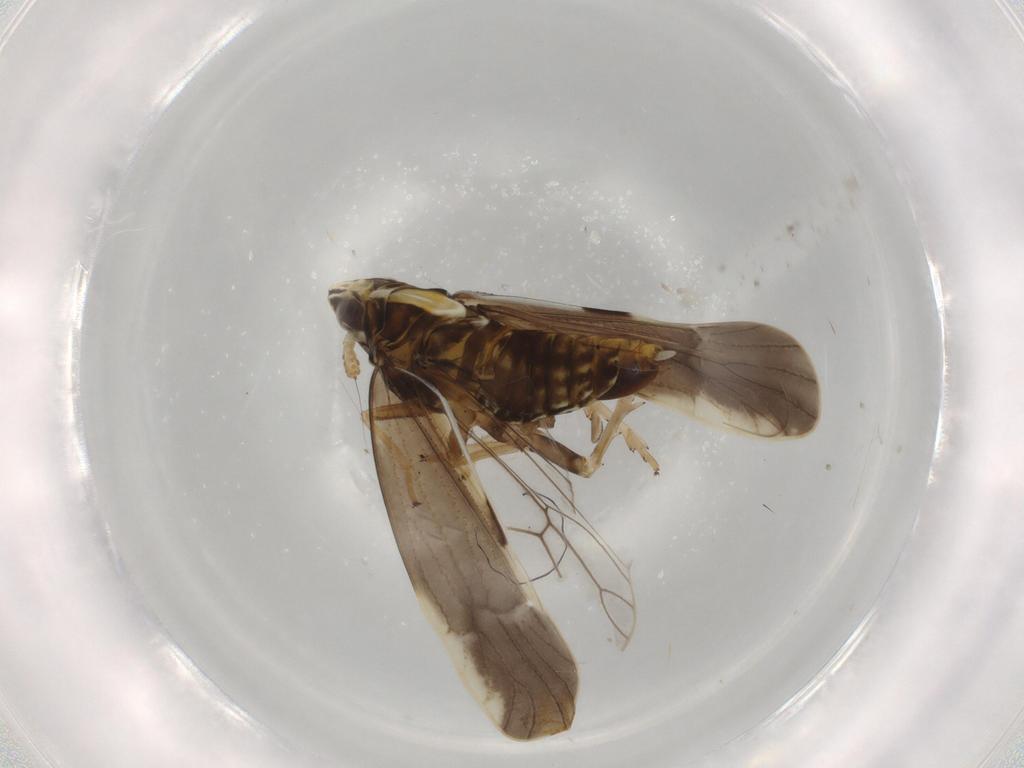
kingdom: Animalia
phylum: Arthropoda
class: Insecta
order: Hemiptera
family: Delphacidae
